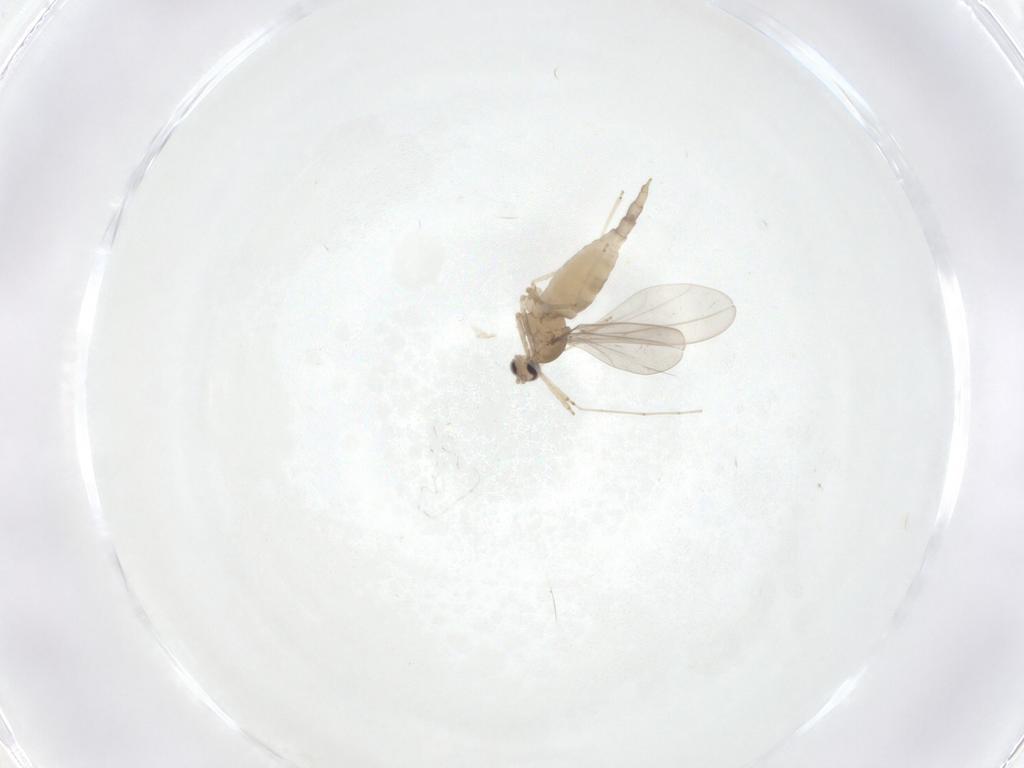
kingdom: Animalia
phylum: Arthropoda
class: Insecta
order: Diptera
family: Cecidomyiidae
